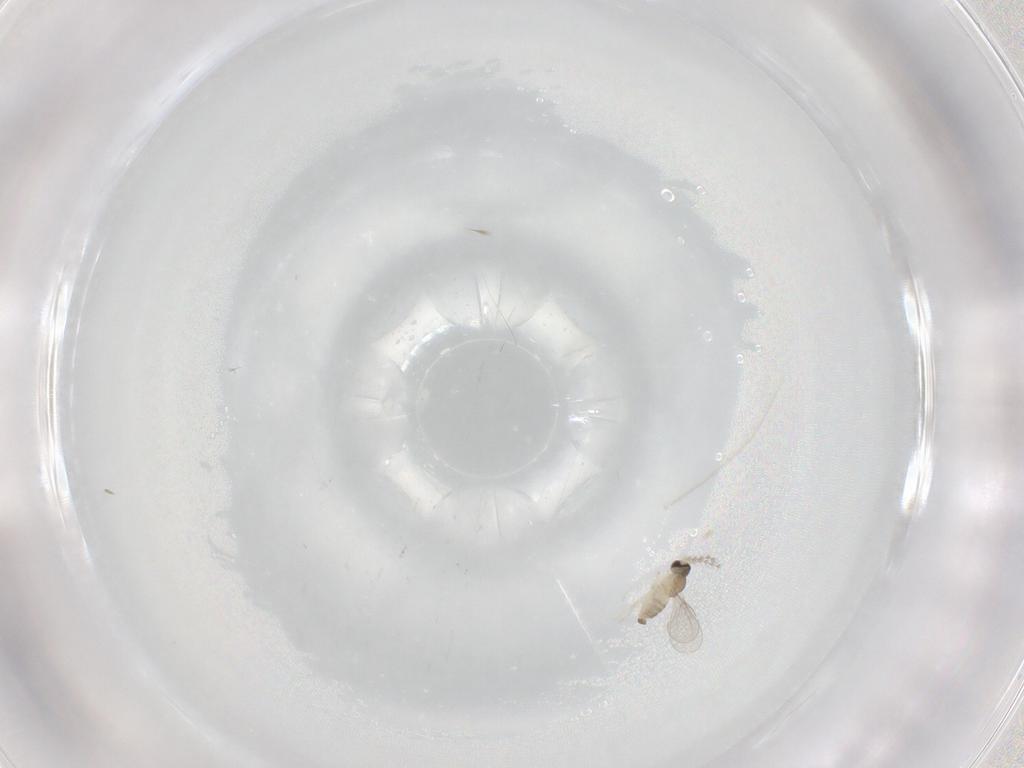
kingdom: Animalia
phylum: Arthropoda
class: Insecta
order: Diptera
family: Cecidomyiidae
